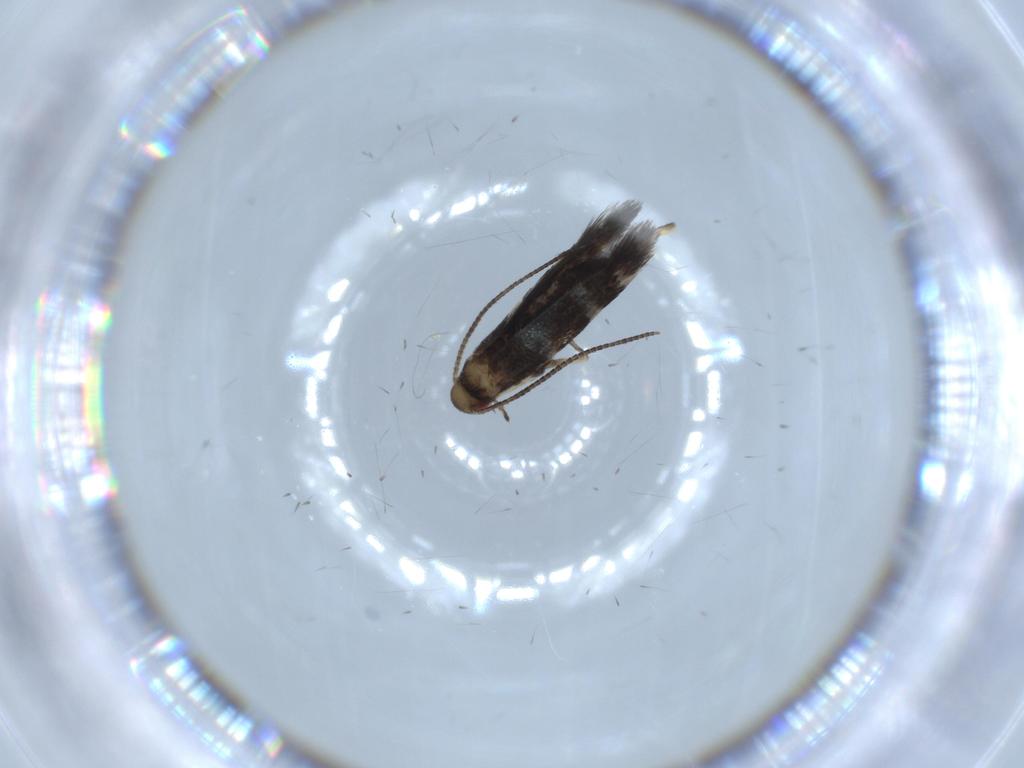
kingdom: Animalia
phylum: Arthropoda
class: Insecta
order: Lepidoptera
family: Gracillariidae
